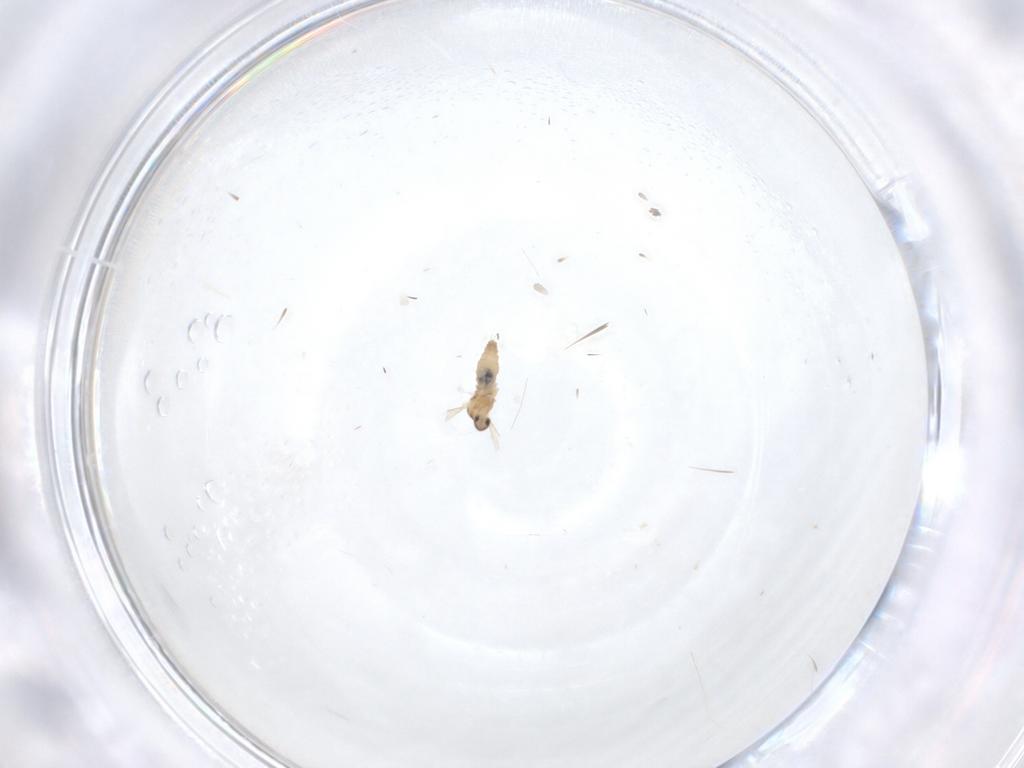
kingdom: Animalia
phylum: Arthropoda
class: Insecta
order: Diptera
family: Cecidomyiidae
